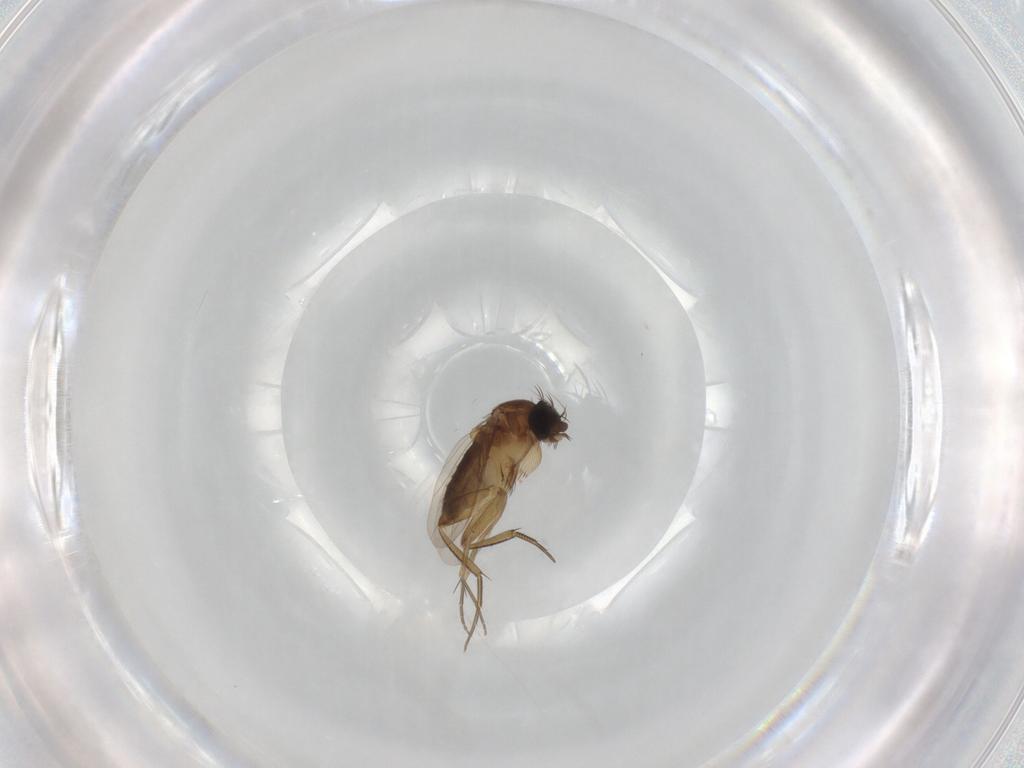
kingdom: Animalia
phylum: Arthropoda
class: Insecta
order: Diptera
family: Phoridae
